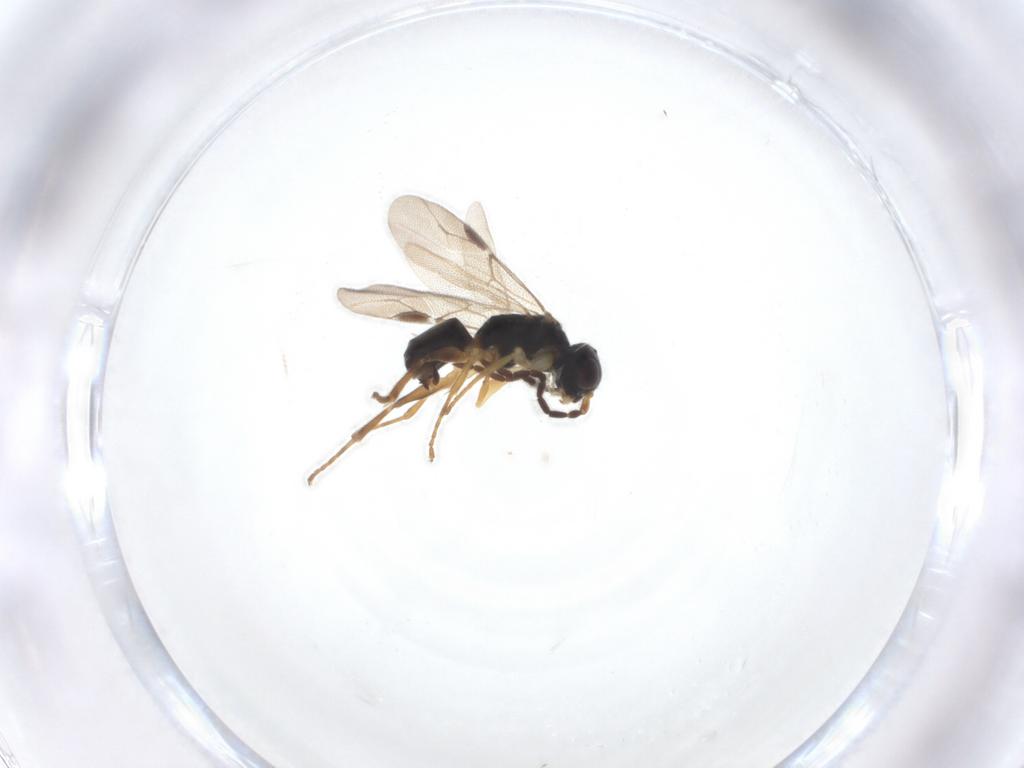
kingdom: Animalia
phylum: Arthropoda
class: Insecta
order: Hymenoptera
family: Dryinidae
